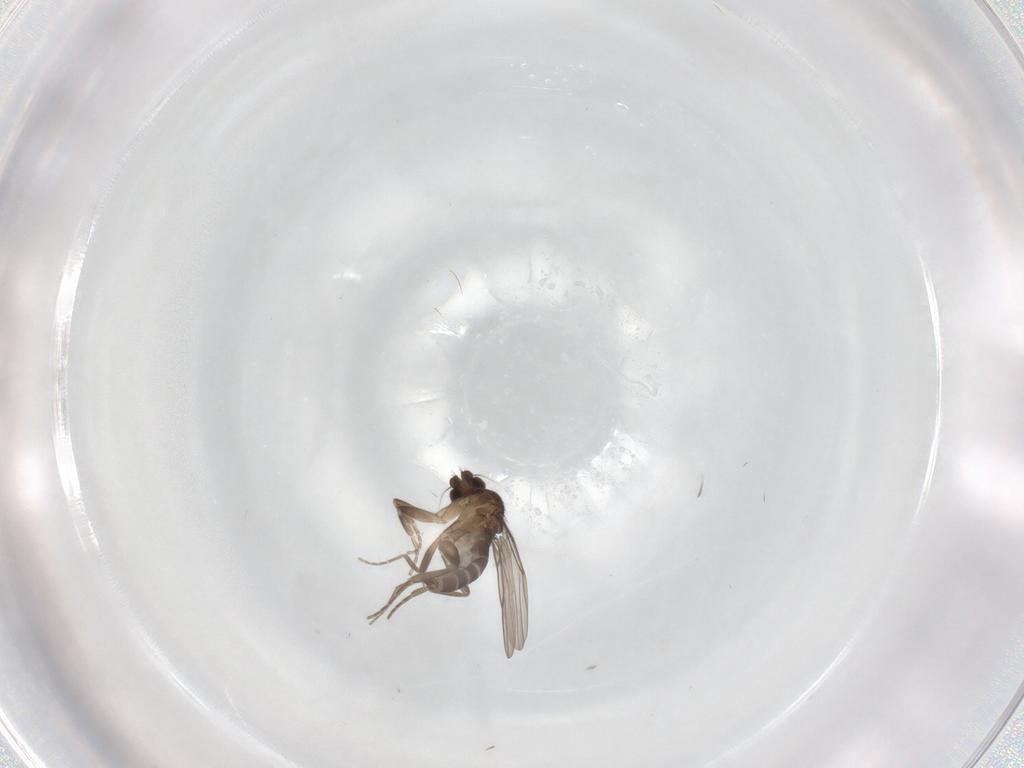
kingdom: Animalia
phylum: Arthropoda
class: Insecta
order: Diptera
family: Phoridae
